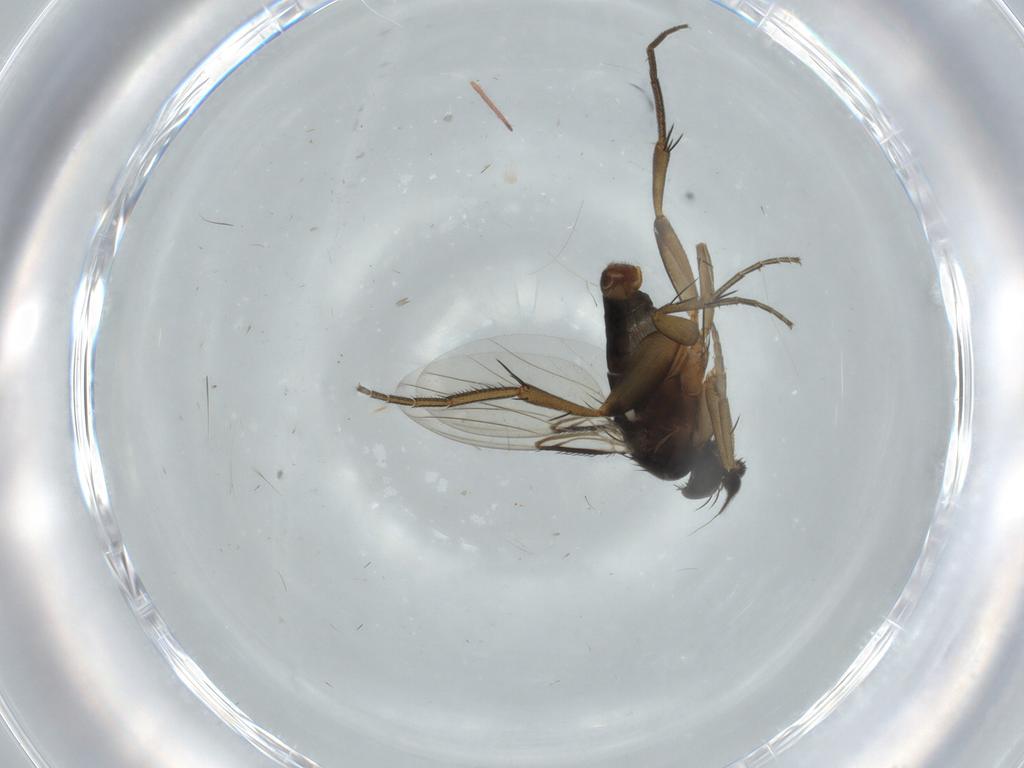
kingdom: Animalia
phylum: Arthropoda
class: Insecta
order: Diptera
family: Phoridae
